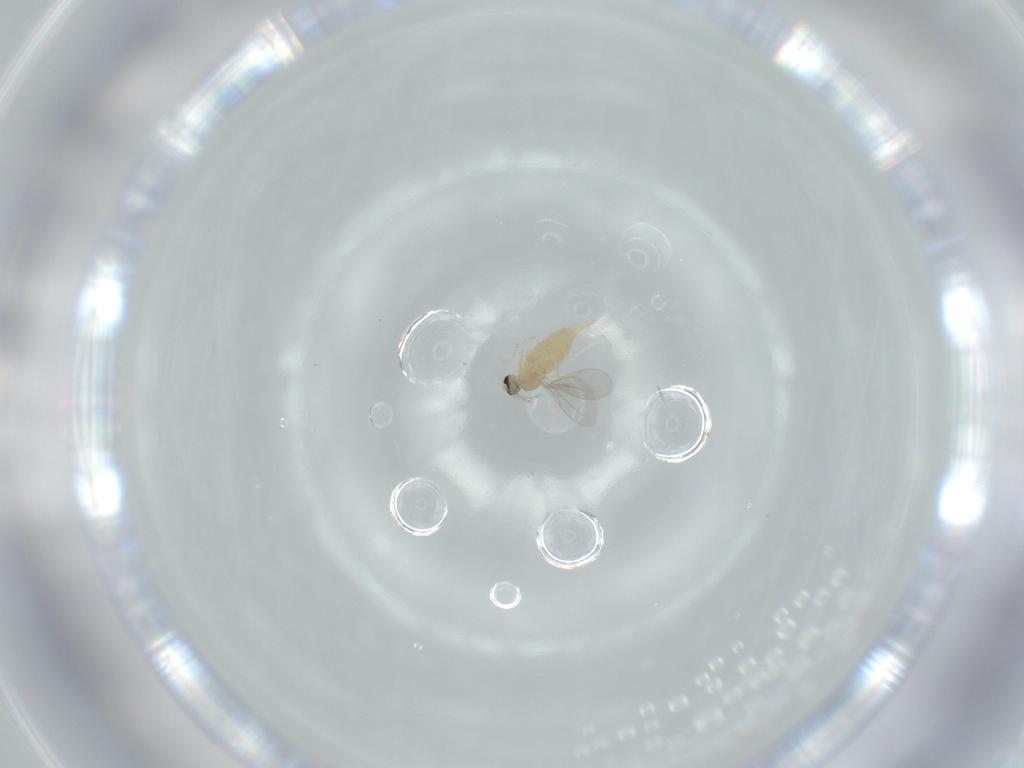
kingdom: Animalia
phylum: Arthropoda
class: Insecta
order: Diptera
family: Cecidomyiidae
